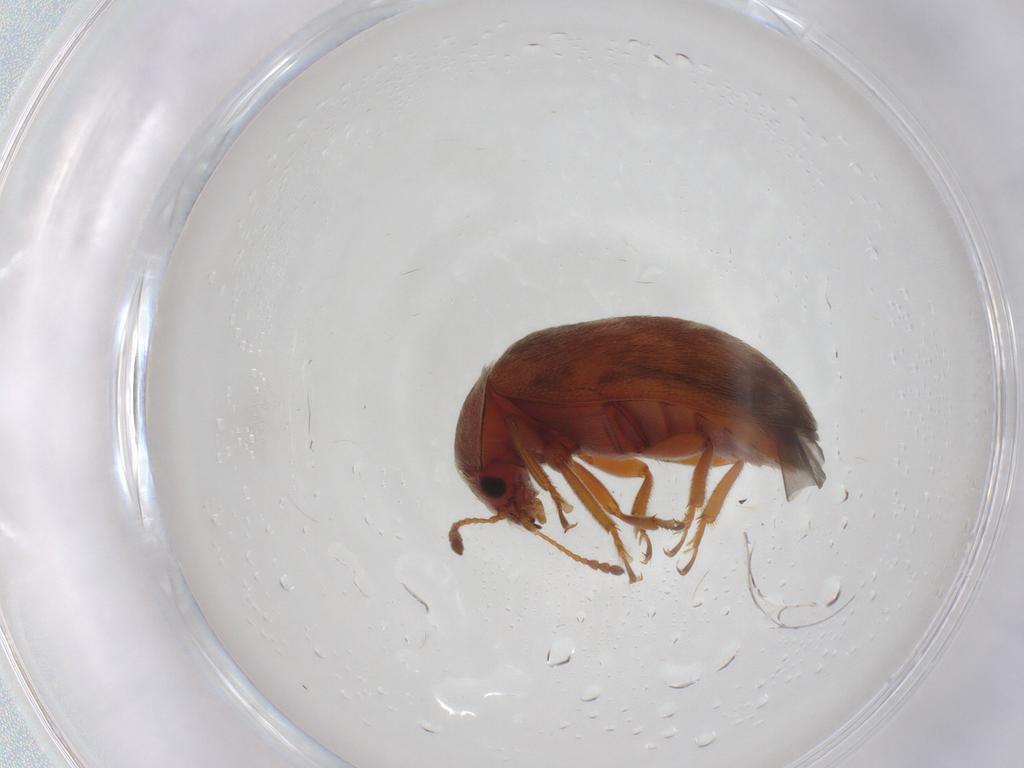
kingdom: Animalia
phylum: Arthropoda
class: Insecta
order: Coleoptera
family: Byturidae
